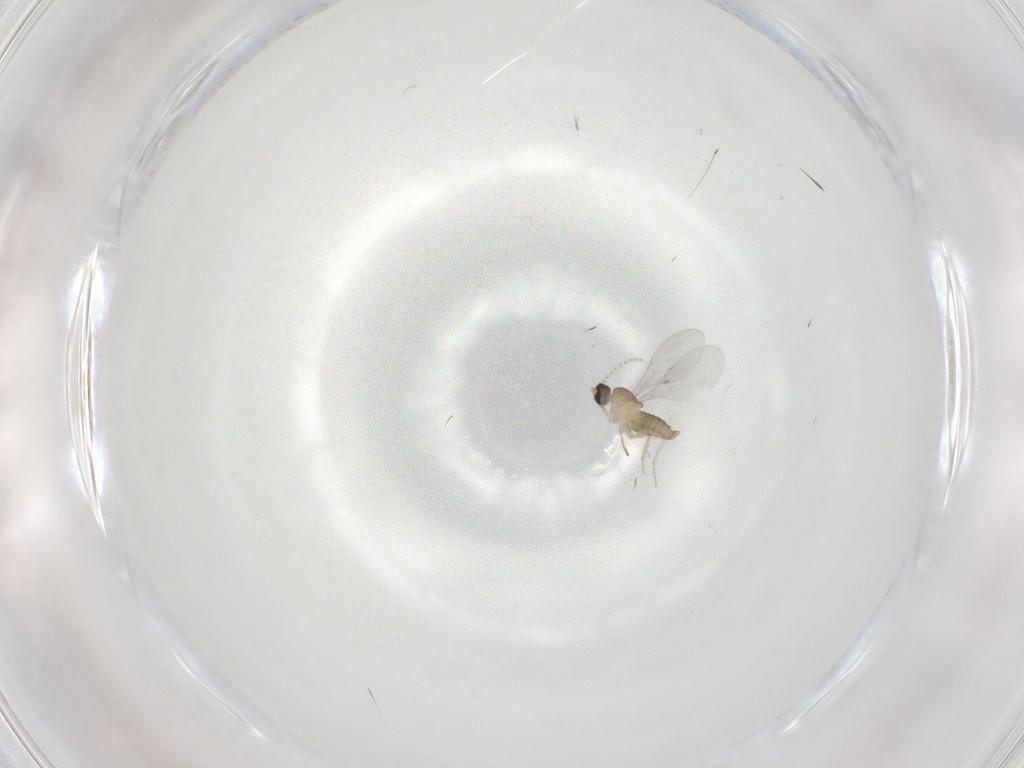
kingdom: Animalia
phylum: Arthropoda
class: Insecta
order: Diptera
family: Cecidomyiidae
